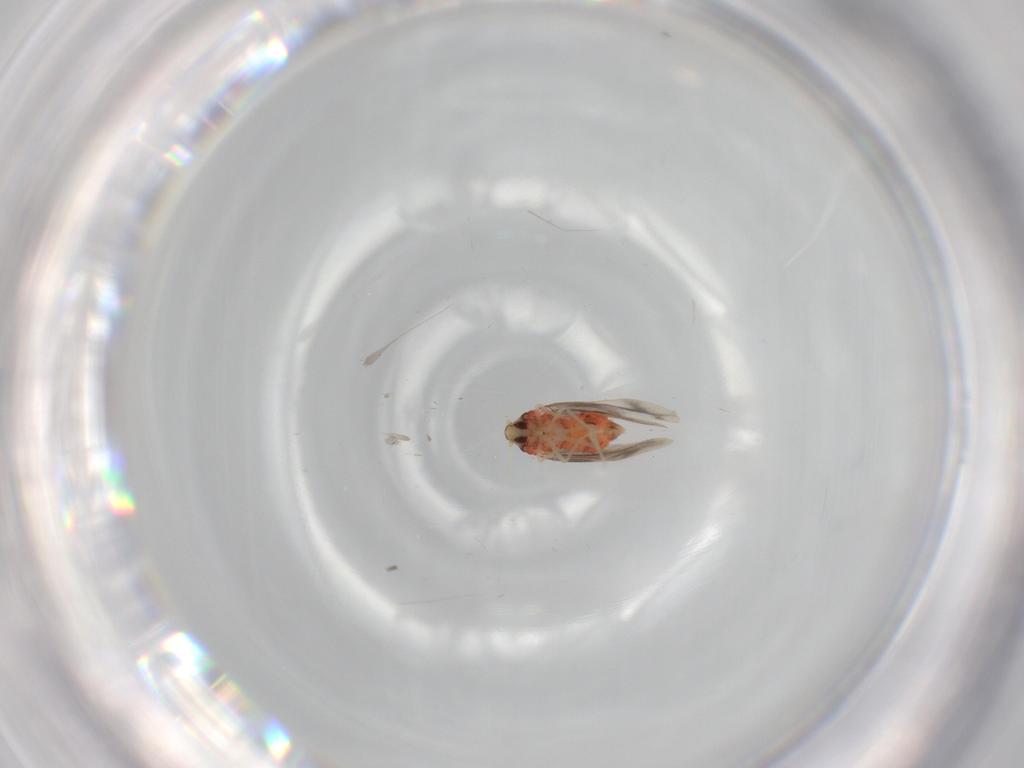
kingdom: Animalia
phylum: Arthropoda
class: Insecta
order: Hemiptera
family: Aleyrodidae
